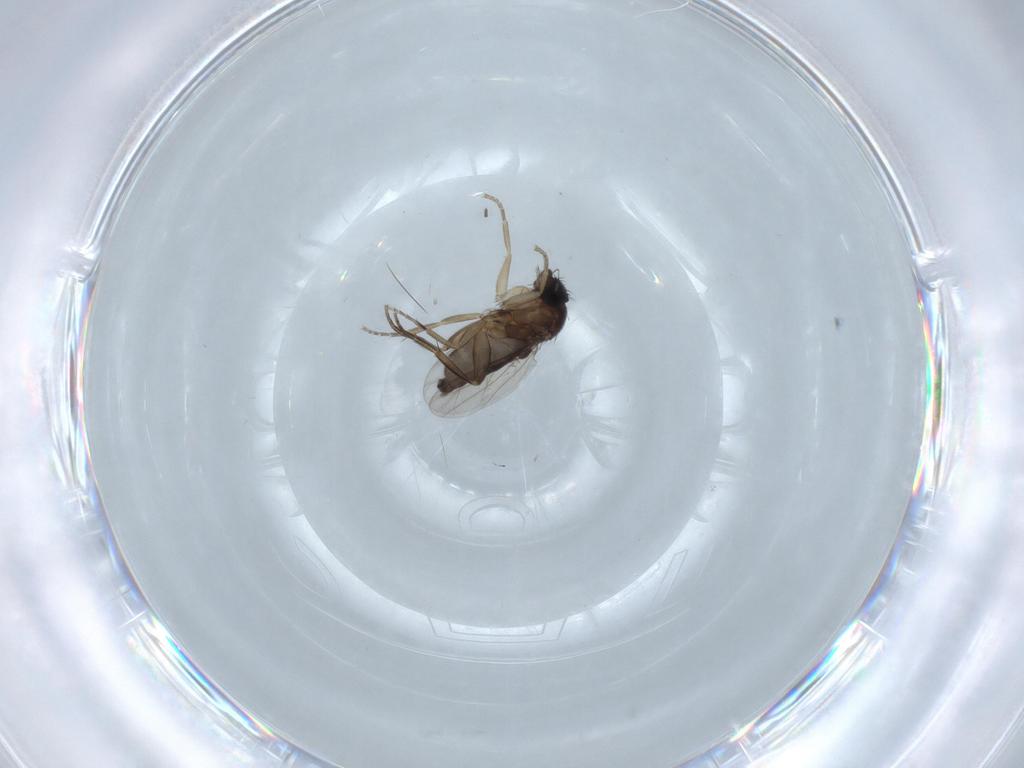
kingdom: Animalia
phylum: Arthropoda
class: Insecta
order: Diptera
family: Phoridae
